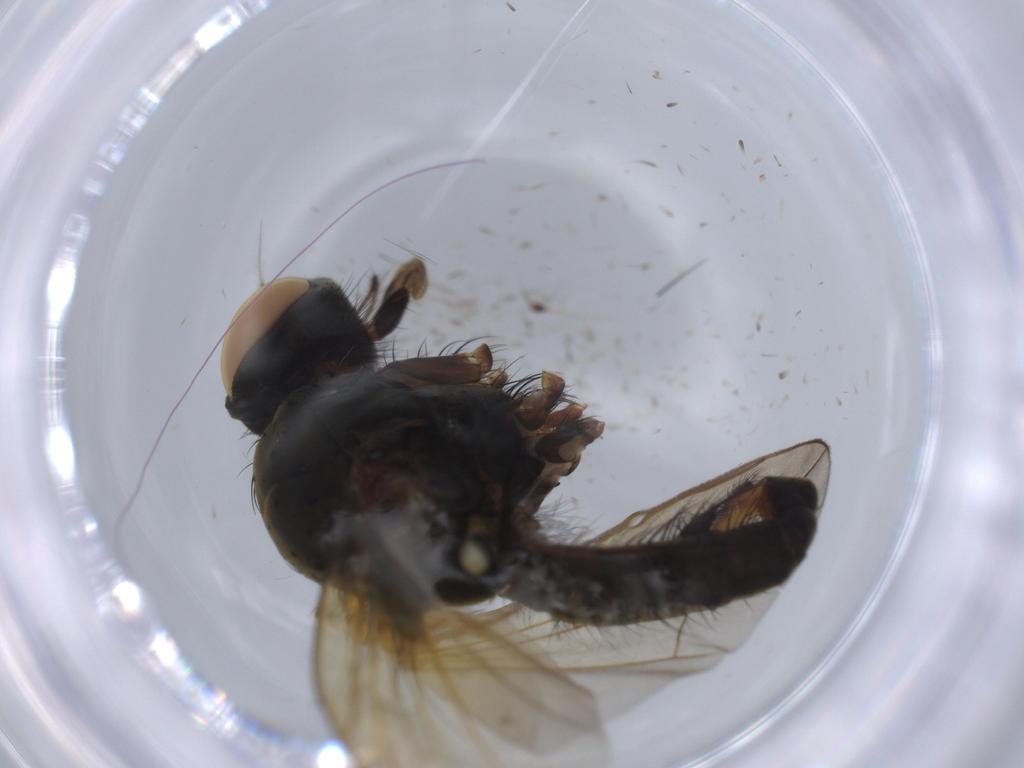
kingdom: Animalia
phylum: Arthropoda
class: Insecta
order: Diptera
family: Anthomyiidae
